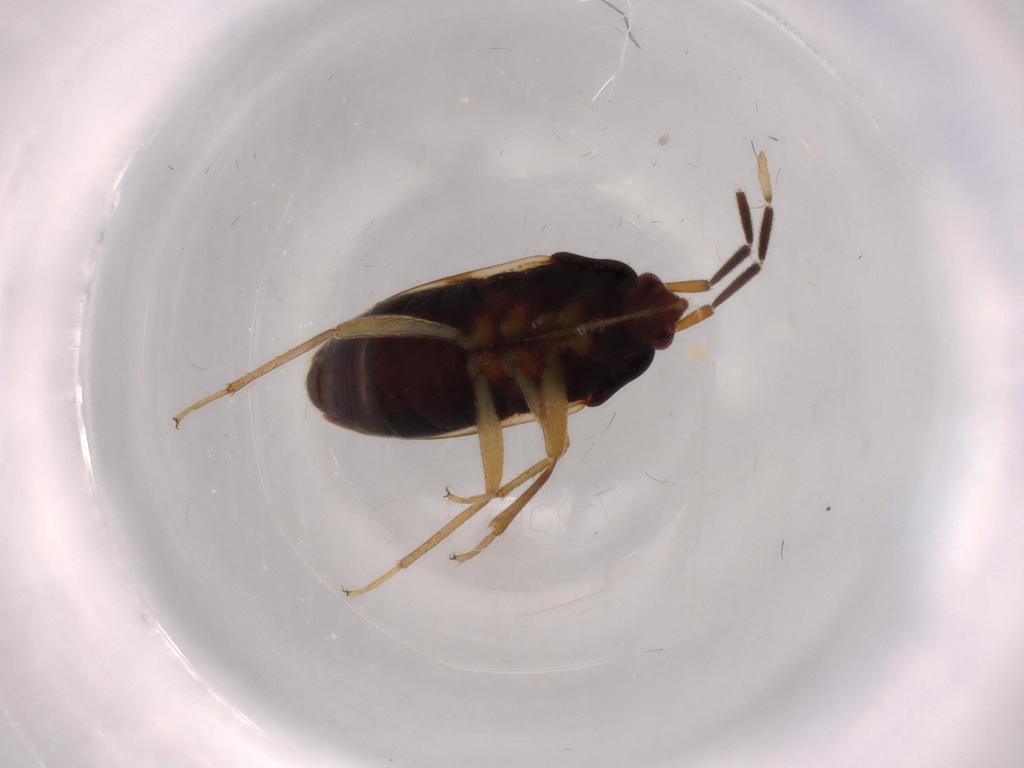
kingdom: Animalia
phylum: Arthropoda
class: Insecta
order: Hemiptera
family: Rhyparochromidae
